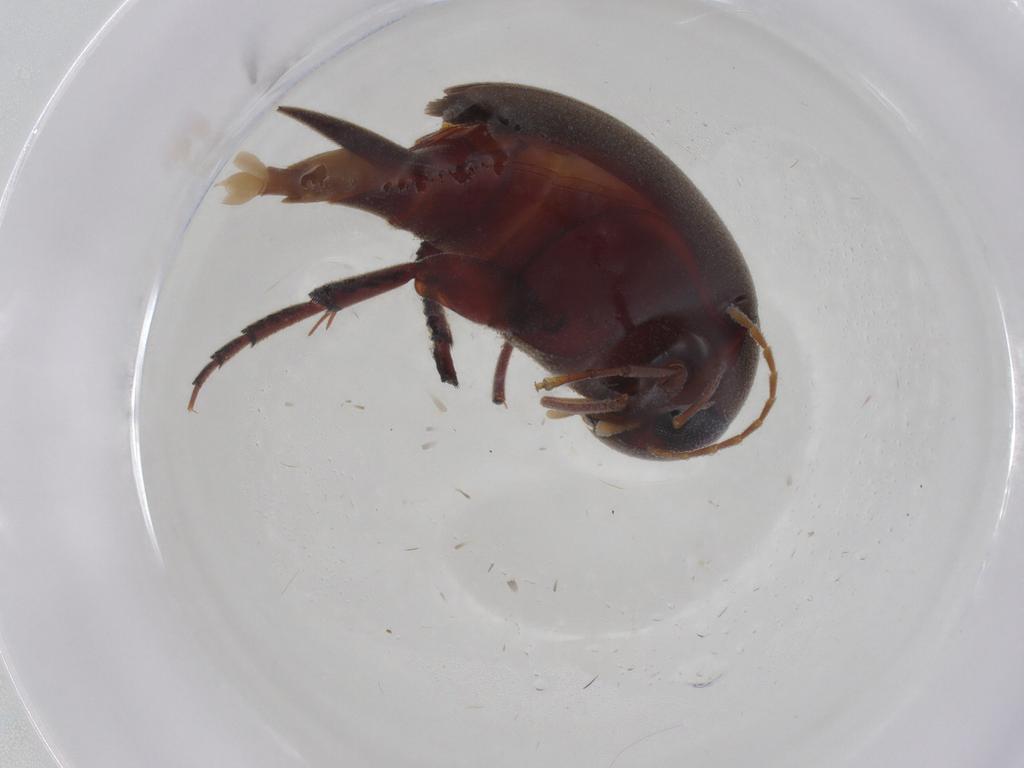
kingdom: Animalia
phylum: Arthropoda
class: Insecta
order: Coleoptera
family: Mordellidae
